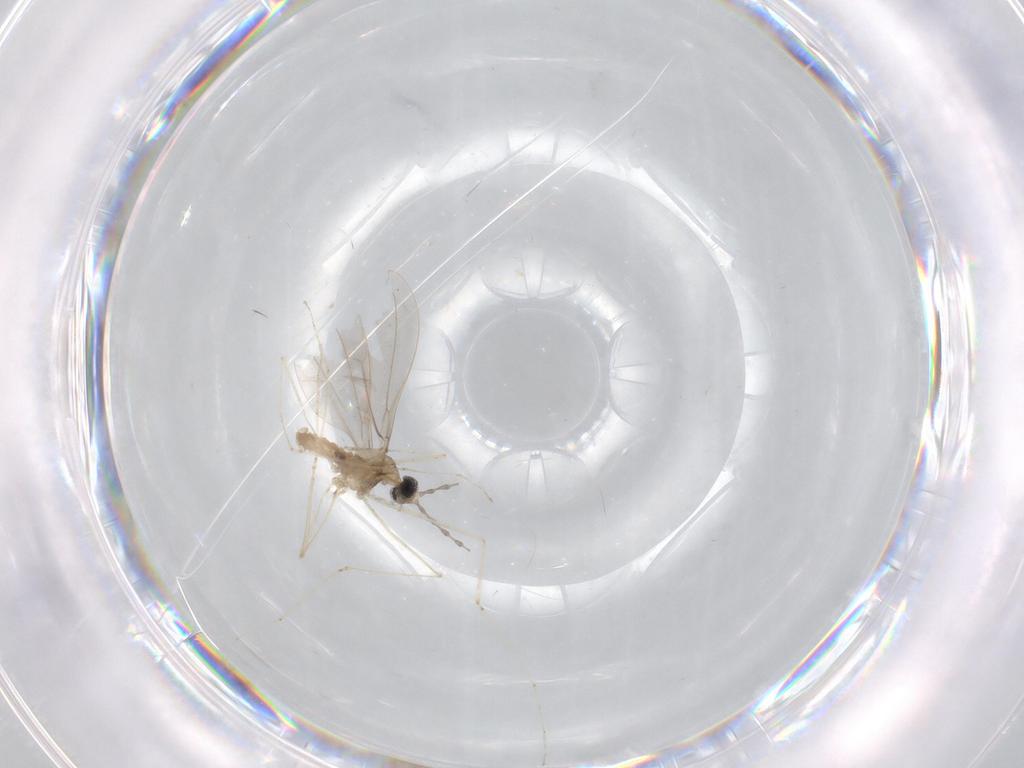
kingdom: Animalia
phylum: Arthropoda
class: Insecta
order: Diptera
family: Cecidomyiidae
